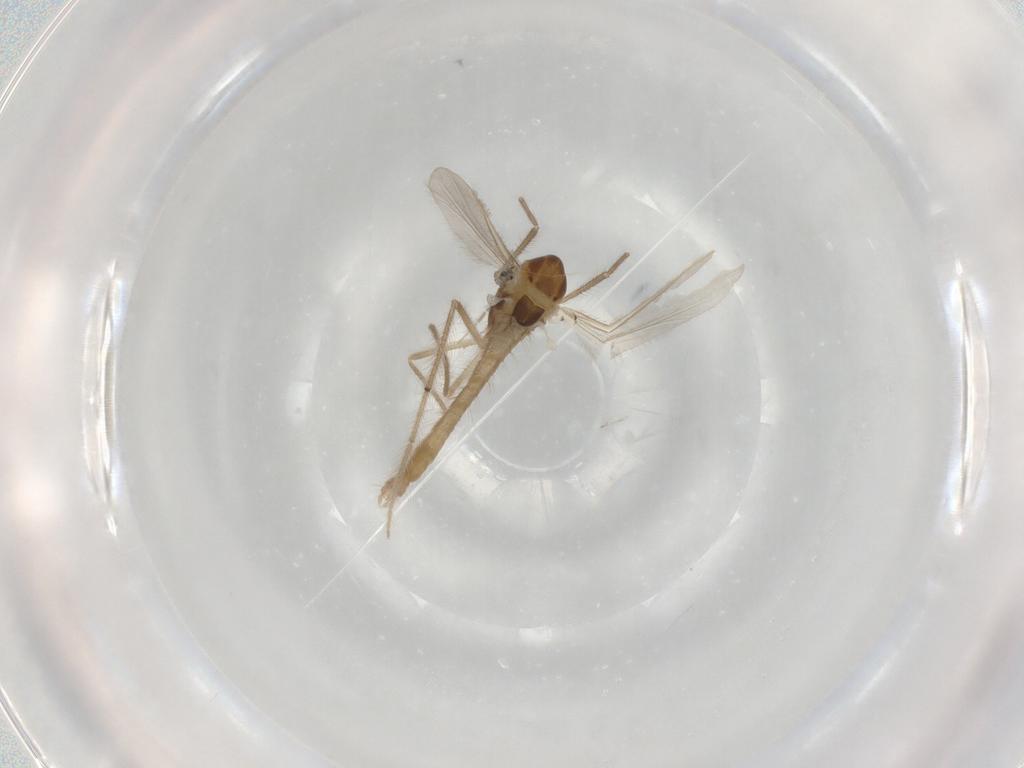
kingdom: Animalia
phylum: Arthropoda
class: Insecta
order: Diptera
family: Chironomidae
